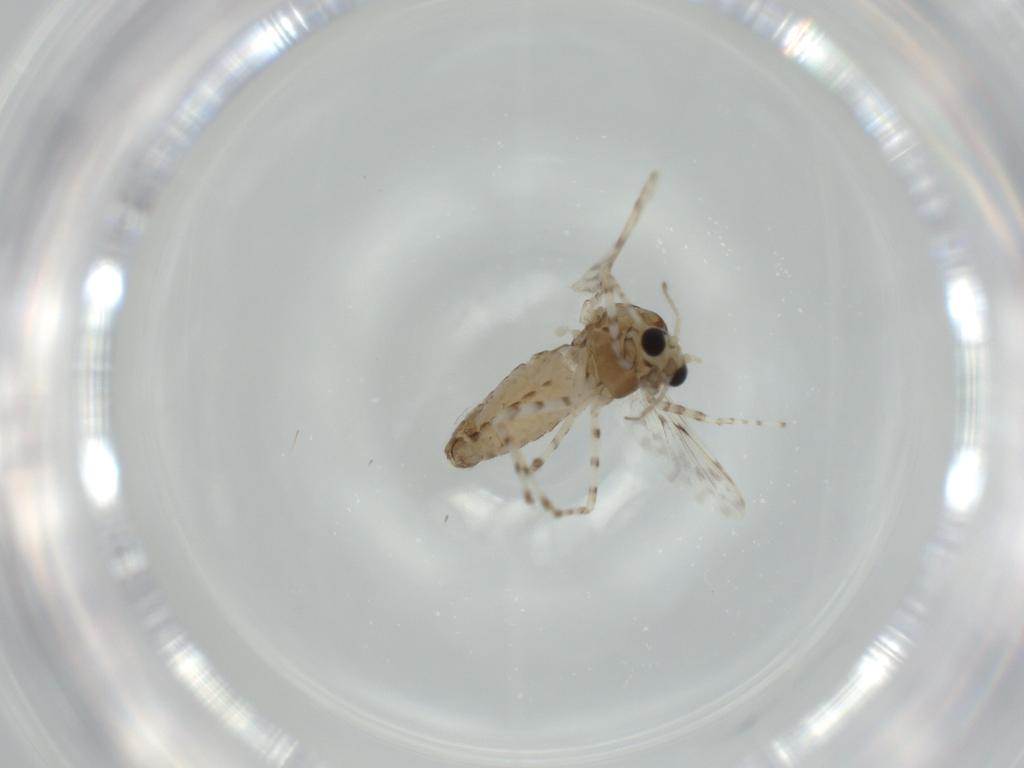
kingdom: Animalia
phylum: Arthropoda
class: Insecta
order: Diptera
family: Chironomidae
